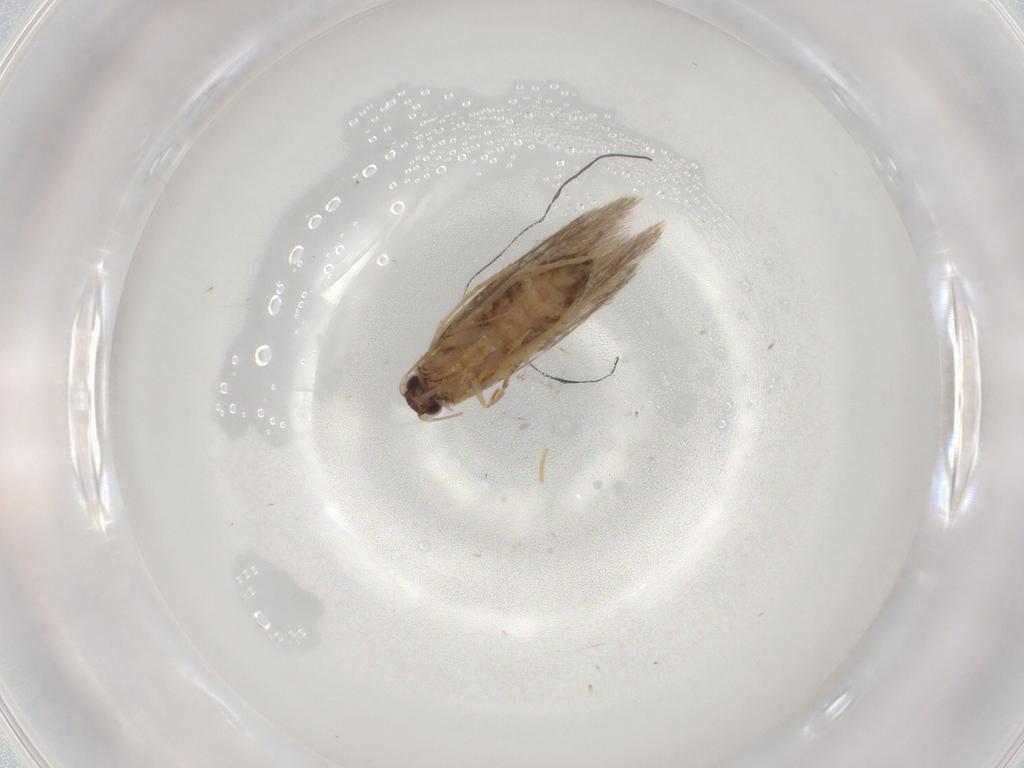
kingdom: Animalia
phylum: Arthropoda
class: Insecta
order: Lepidoptera
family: Tineidae
